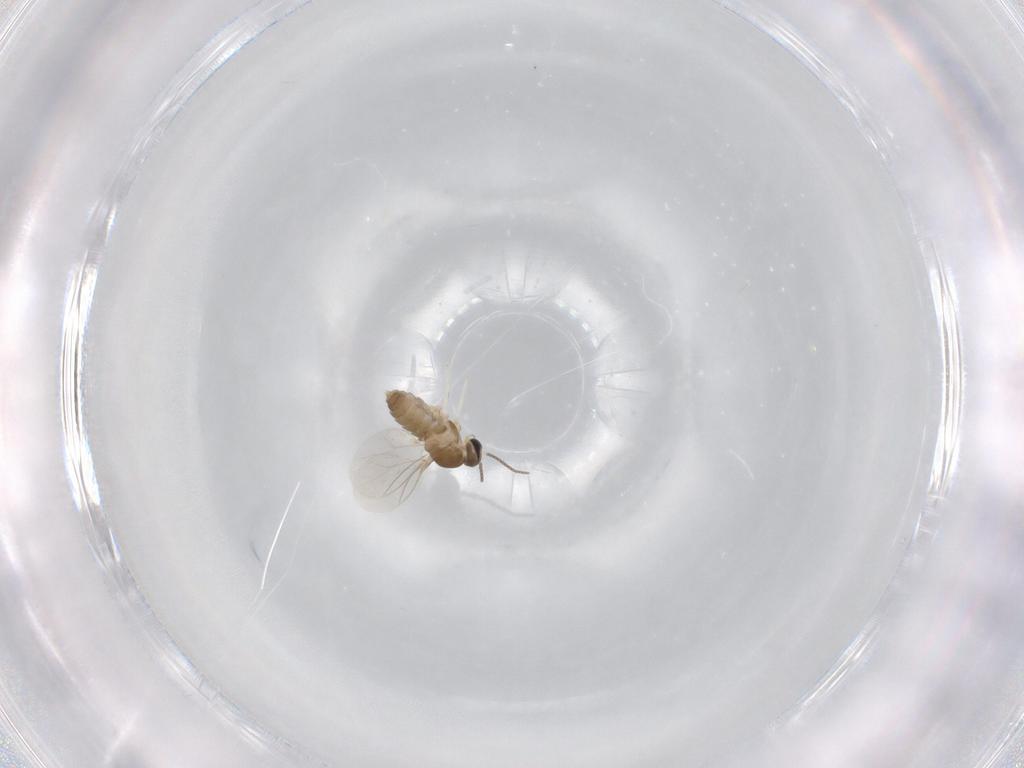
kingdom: Animalia
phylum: Arthropoda
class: Insecta
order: Diptera
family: Cecidomyiidae
